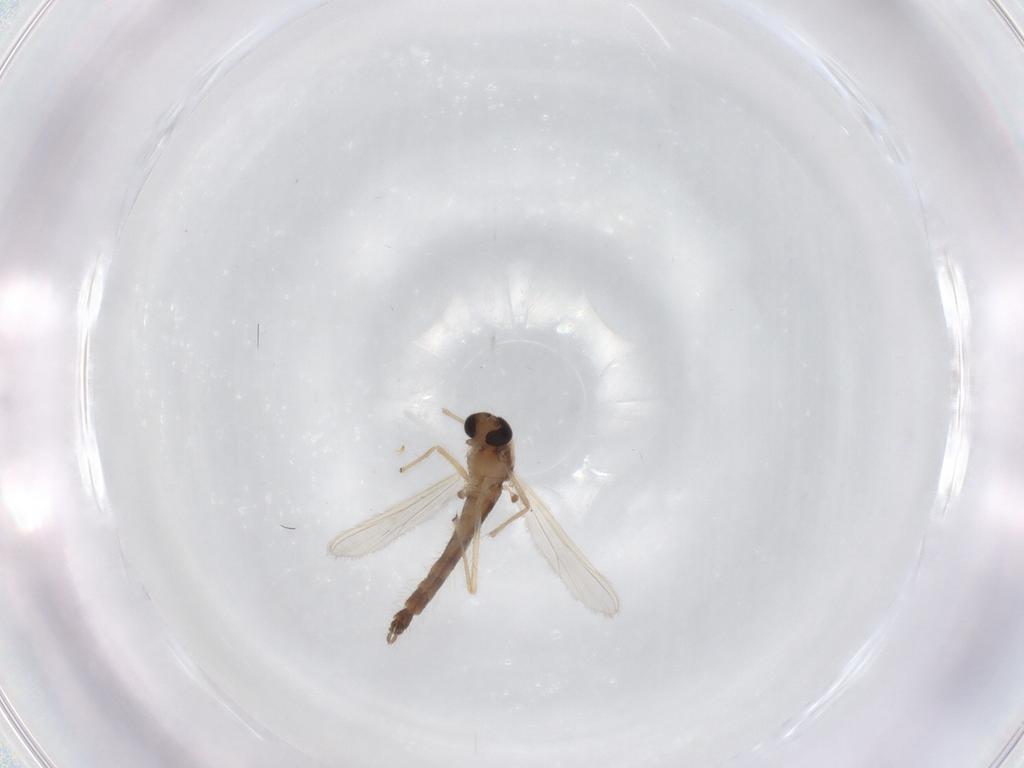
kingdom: Animalia
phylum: Arthropoda
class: Insecta
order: Diptera
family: Chironomidae
